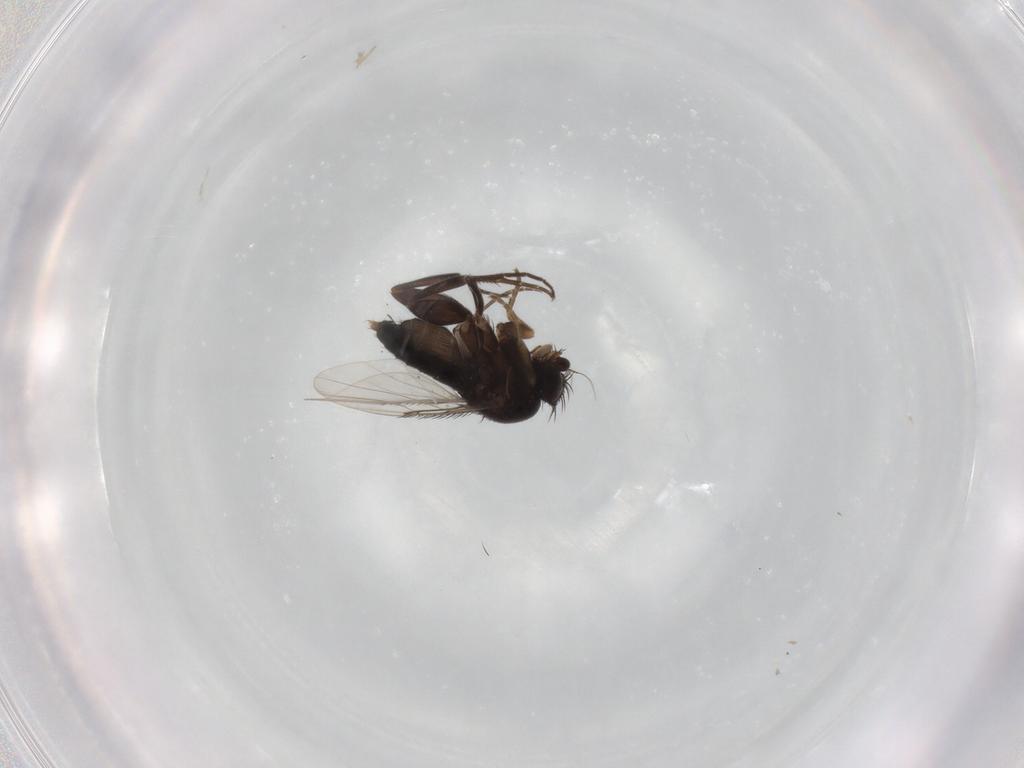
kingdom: Animalia
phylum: Arthropoda
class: Insecta
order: Diptera
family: Phoridae
